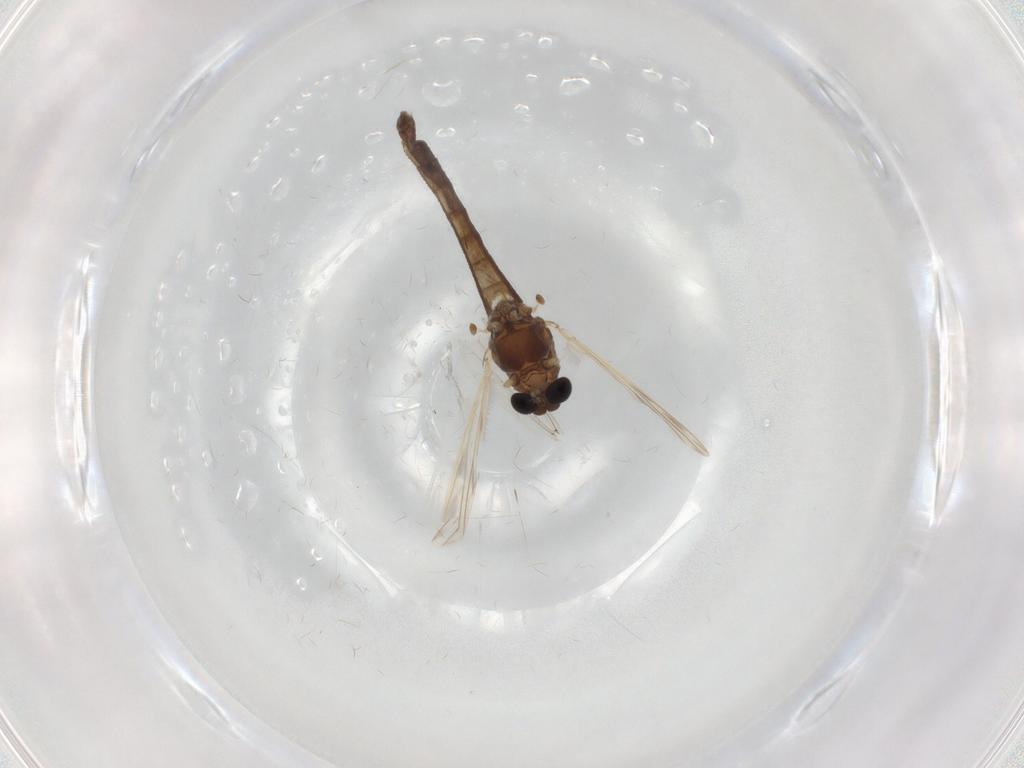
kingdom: Animalia
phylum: Arthropoda
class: Insecta
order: Diptera
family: Chironomidae
